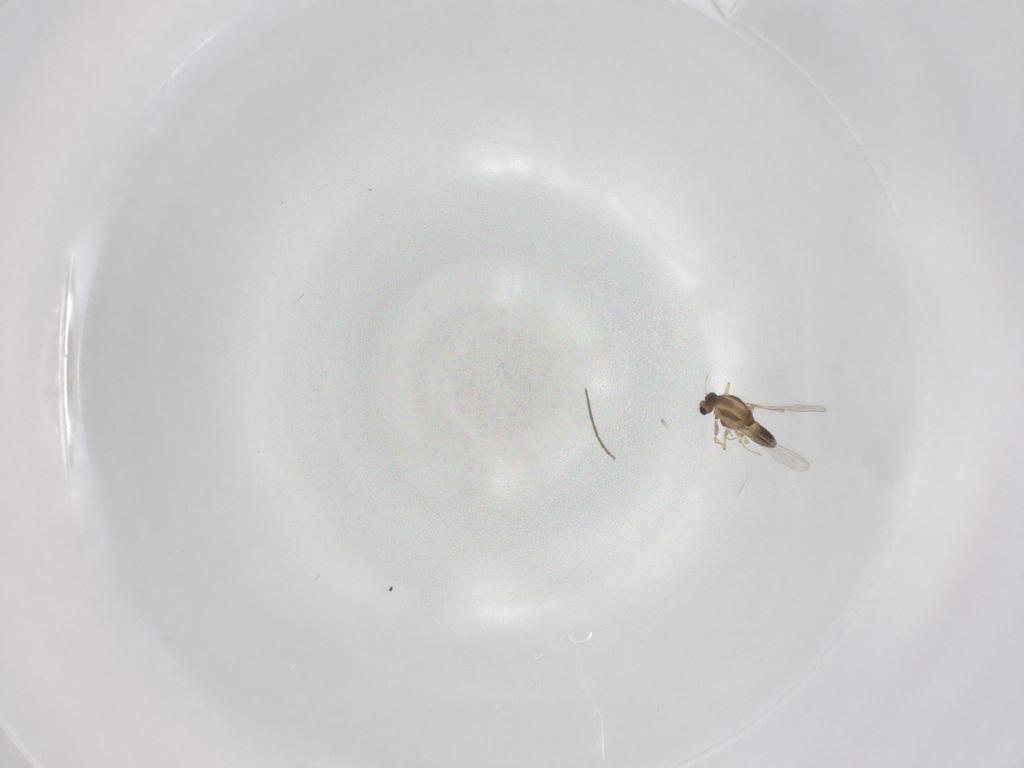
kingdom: Animalia
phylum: Arthropoda
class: Insecta
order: Diptera
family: Chironomidae
